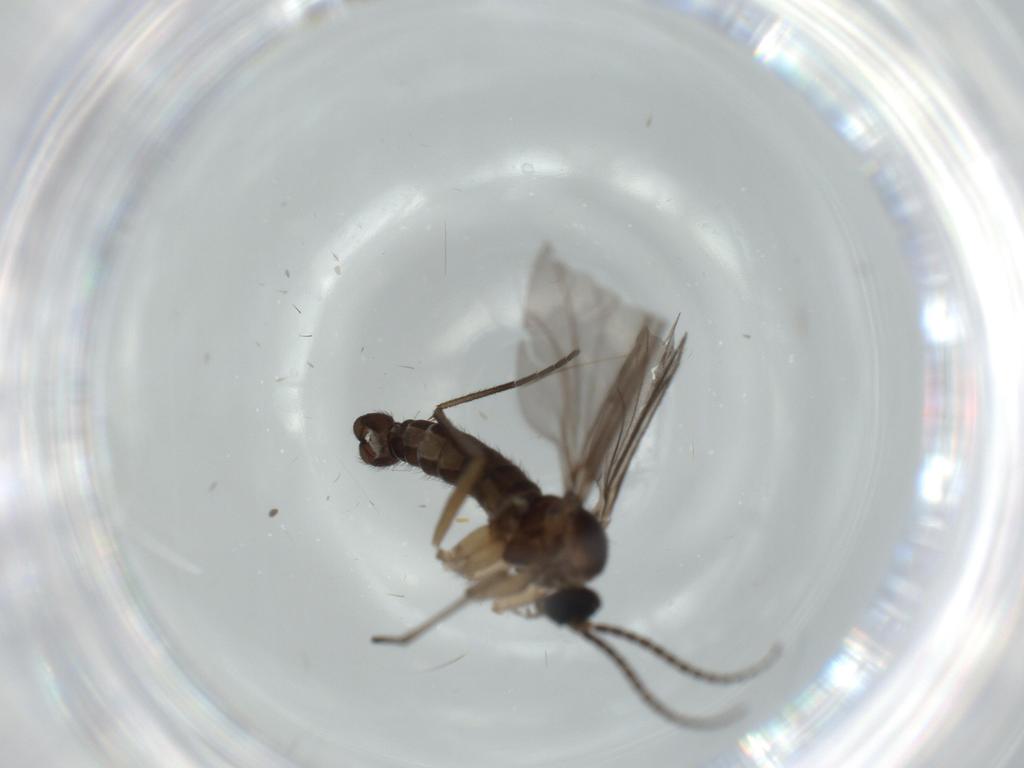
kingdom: Animalia
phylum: Arthropoda
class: Insecta
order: Diptera
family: Sciaridae
